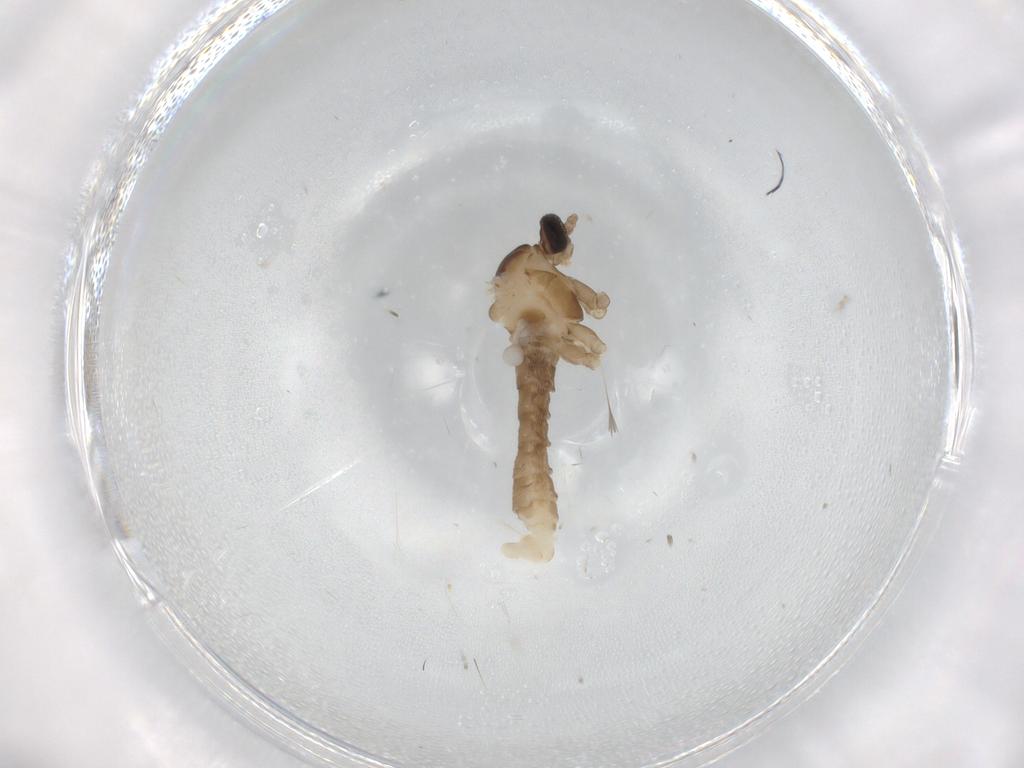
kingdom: Animalia
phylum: Arthropoda
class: Insecta
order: Diptera
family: Cecidomyiidae
